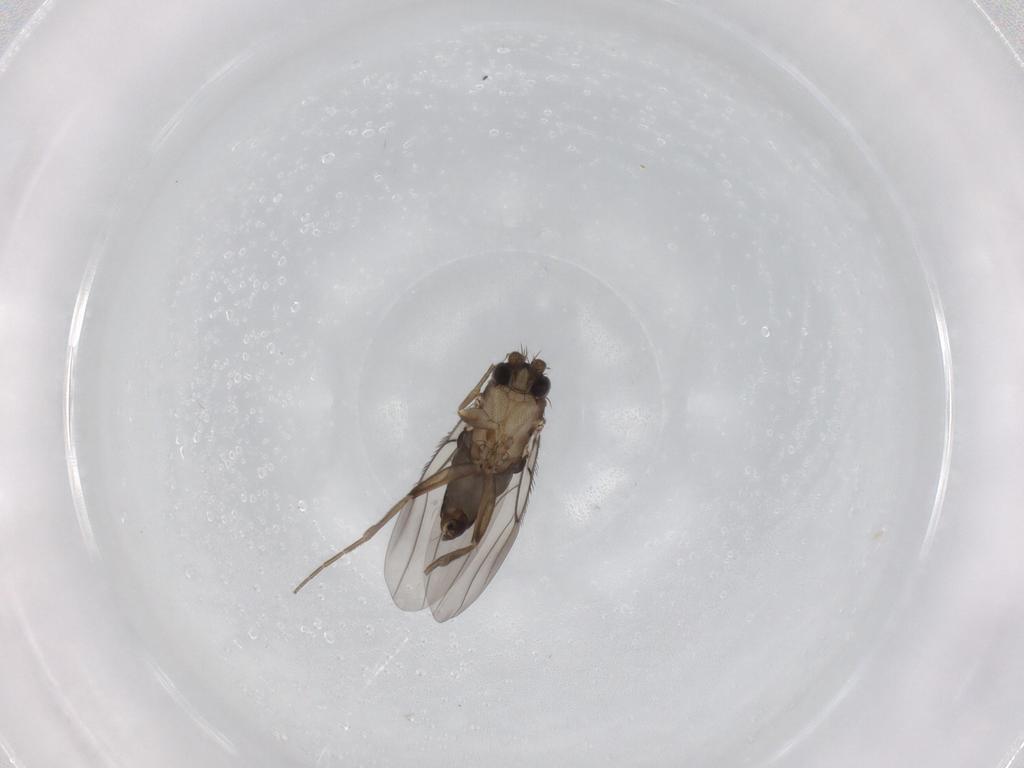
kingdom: Animalia
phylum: Arthropoda
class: Insecta
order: Diptera
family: Phoridae
